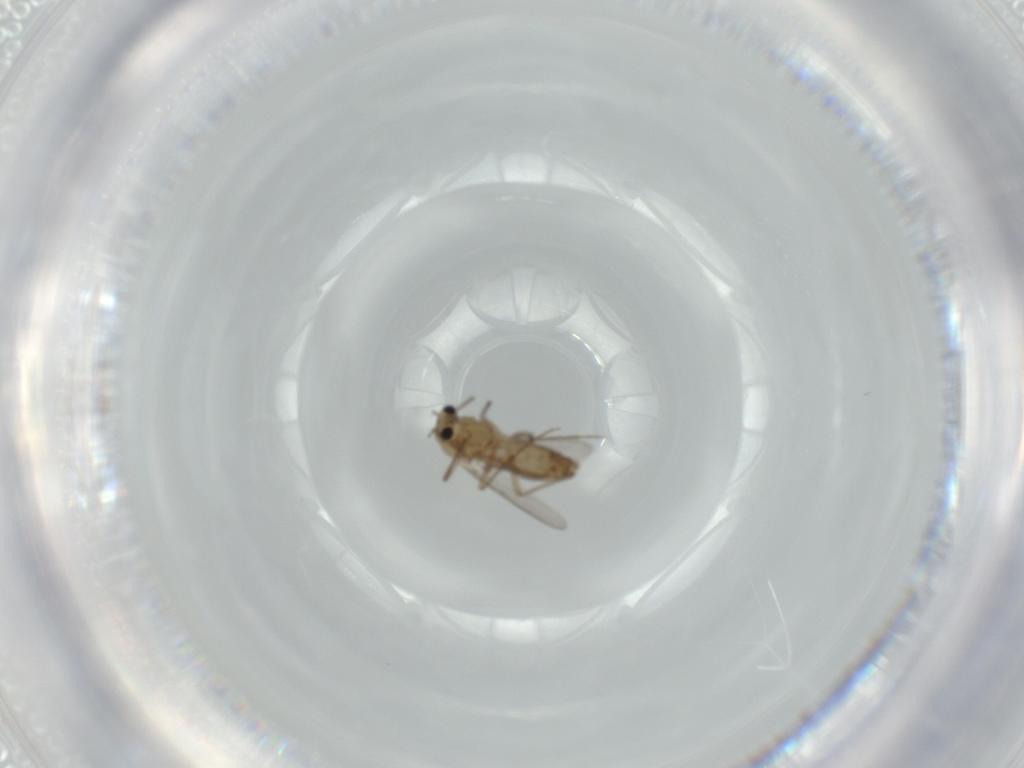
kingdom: Animalia
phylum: Arthropoda
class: Insecta
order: Diptera
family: Chironomidae
